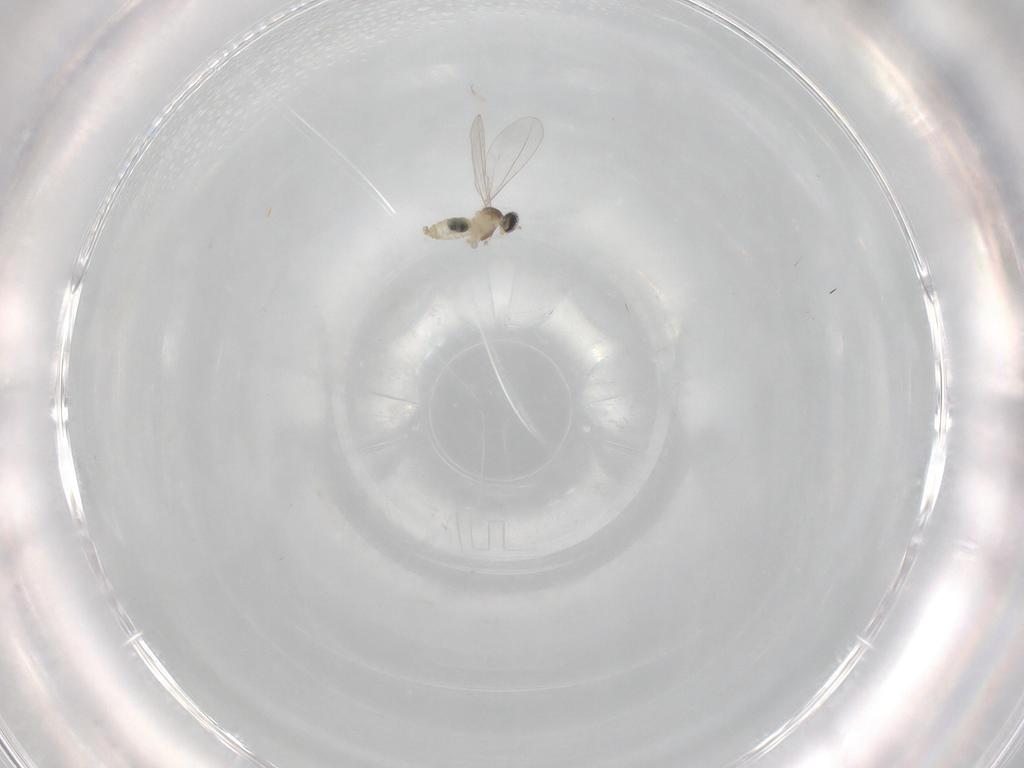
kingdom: Animalia
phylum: Arthropoda
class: Insecta
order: Diptera
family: Cecidomyiidae
